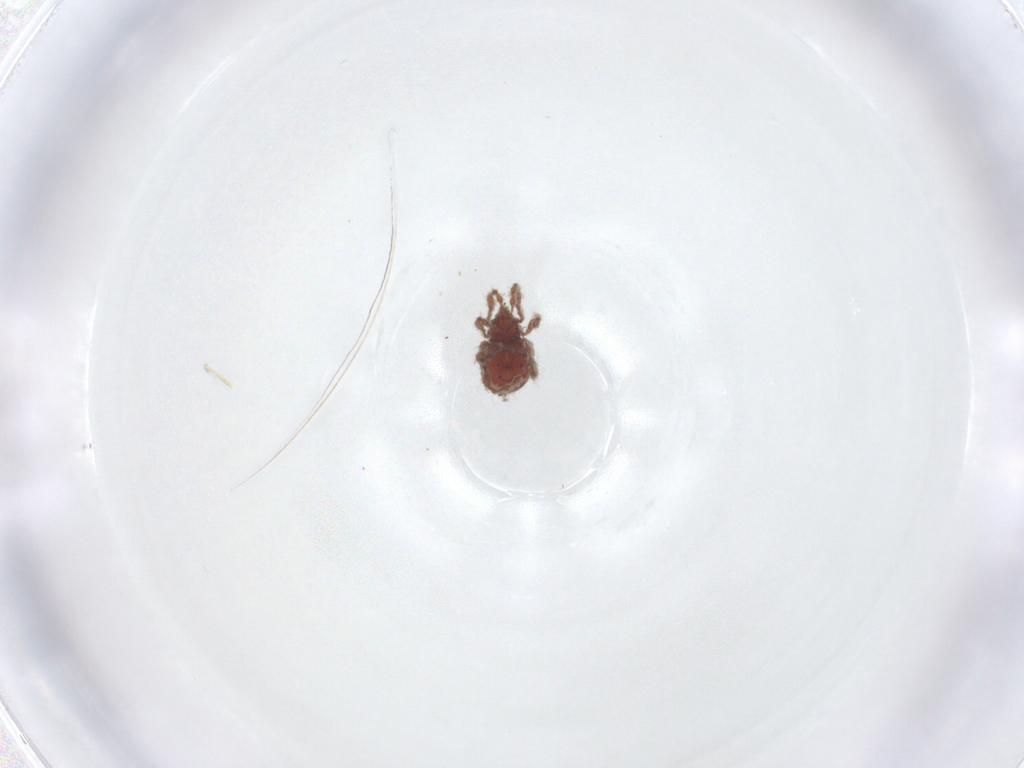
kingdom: Animalia
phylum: Arthropoda
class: Arachnida
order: Sarcoptiformes
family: Damaeidae
